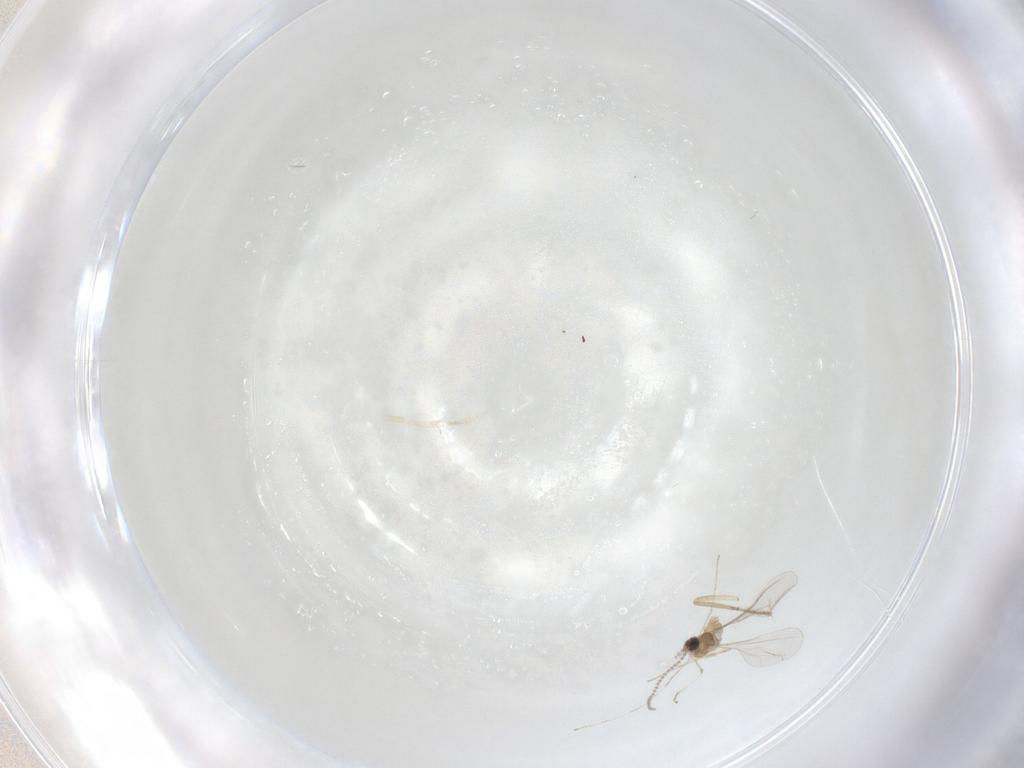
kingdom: Animalia
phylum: Arthropoda
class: Insecta
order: Diptera
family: Ceratopogonidae
